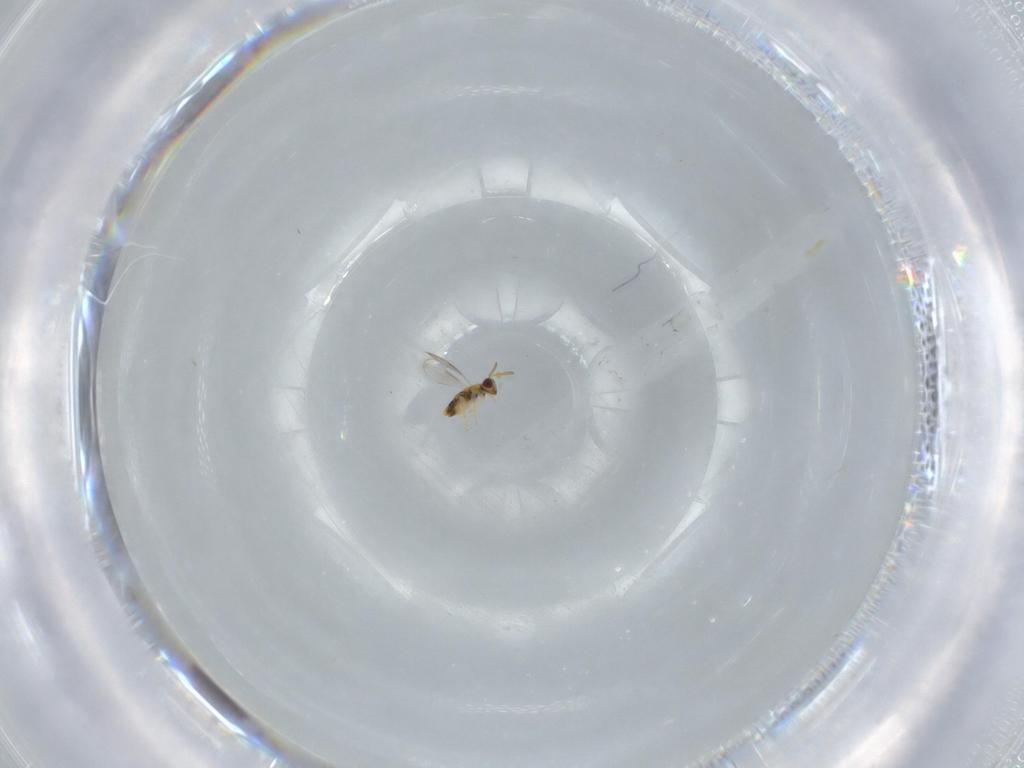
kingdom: Animalia
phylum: Arthropoda
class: Insecta
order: Hymenoptera
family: Aphelinidae
